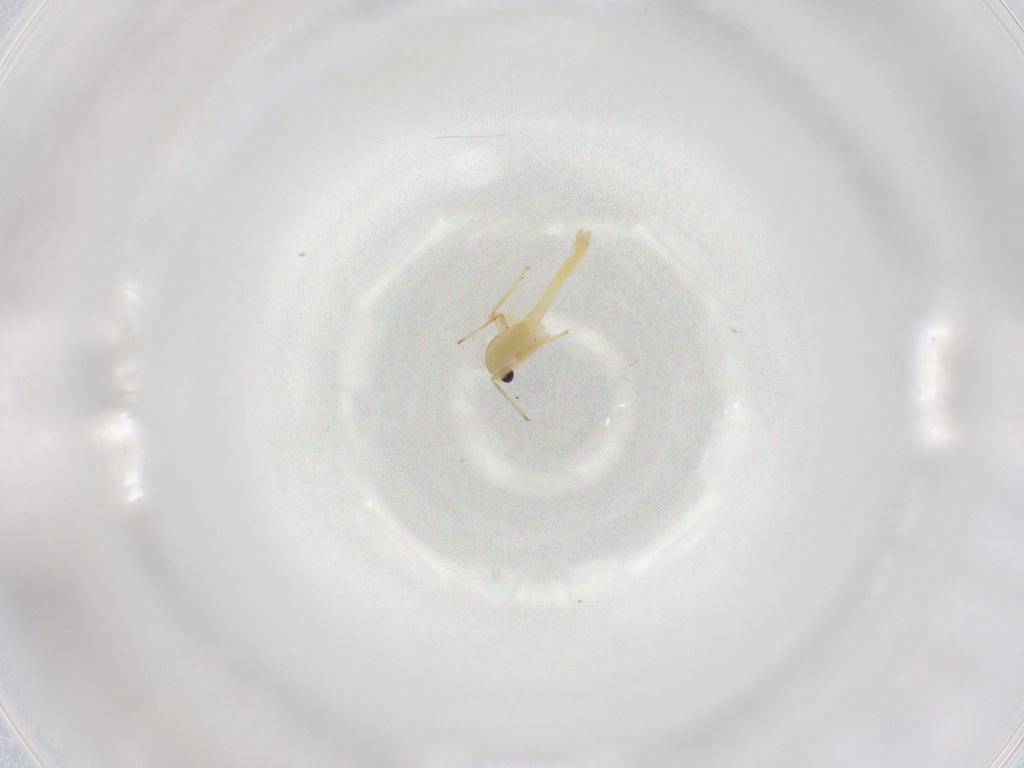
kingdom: Animalia
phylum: Arthropoda
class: Insecta
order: Diptera
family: Chironomidae
